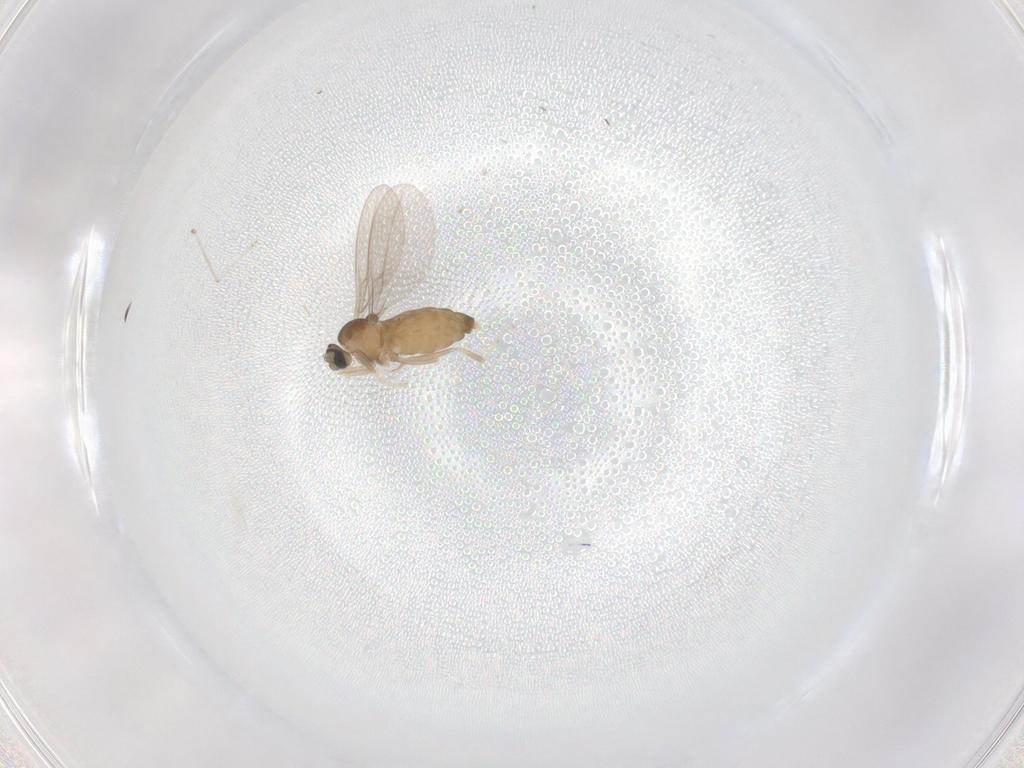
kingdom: Animalia
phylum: Arthropoda
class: Insecta
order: Diptera
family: Cecidomyiidae
